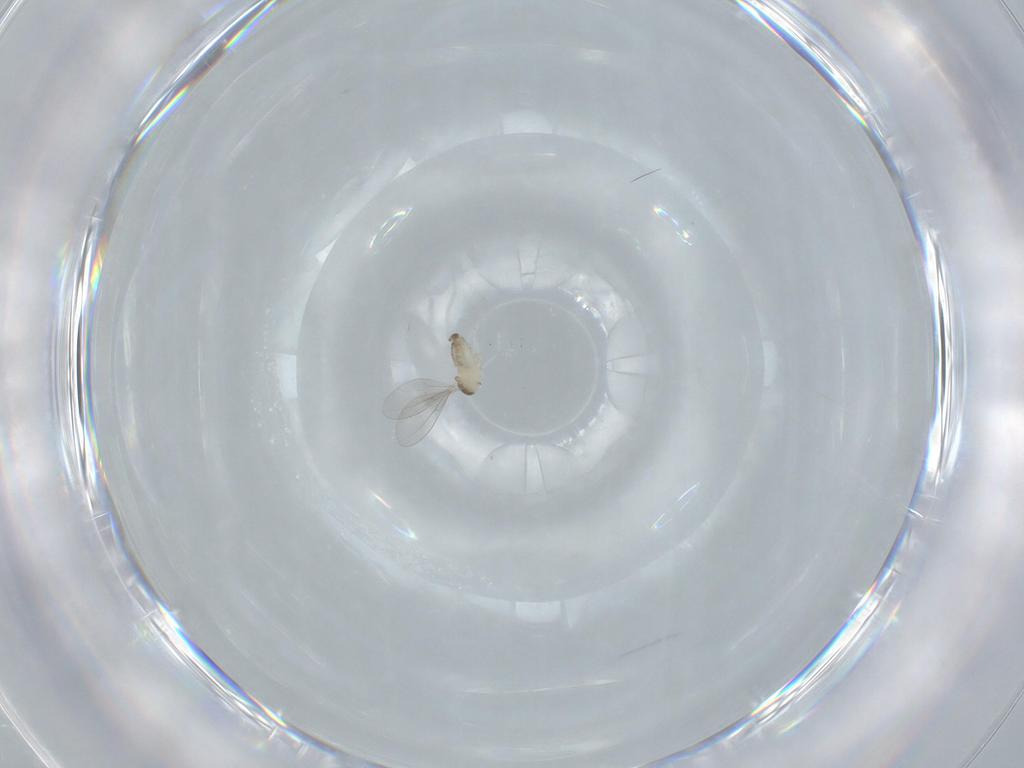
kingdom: Animalia
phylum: Arthropoda
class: Insecta
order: Diptera
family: Cecidomyiidae
